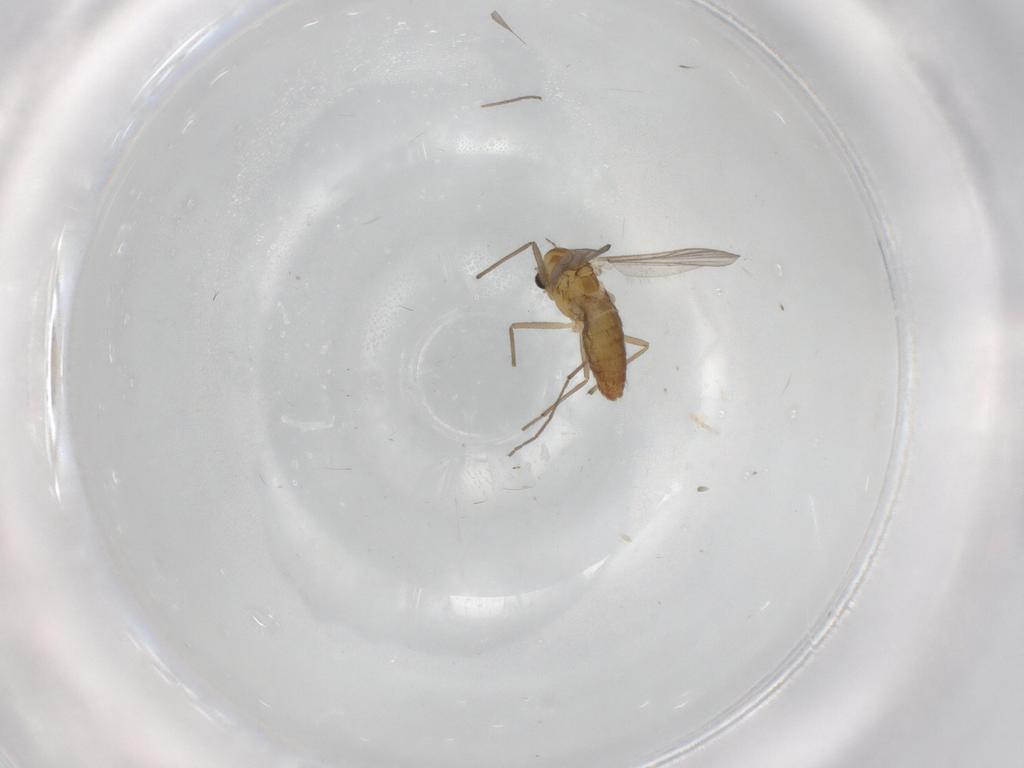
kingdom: Animalia
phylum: Arthropoda
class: Insecta
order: Diptera
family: Chironomidae
